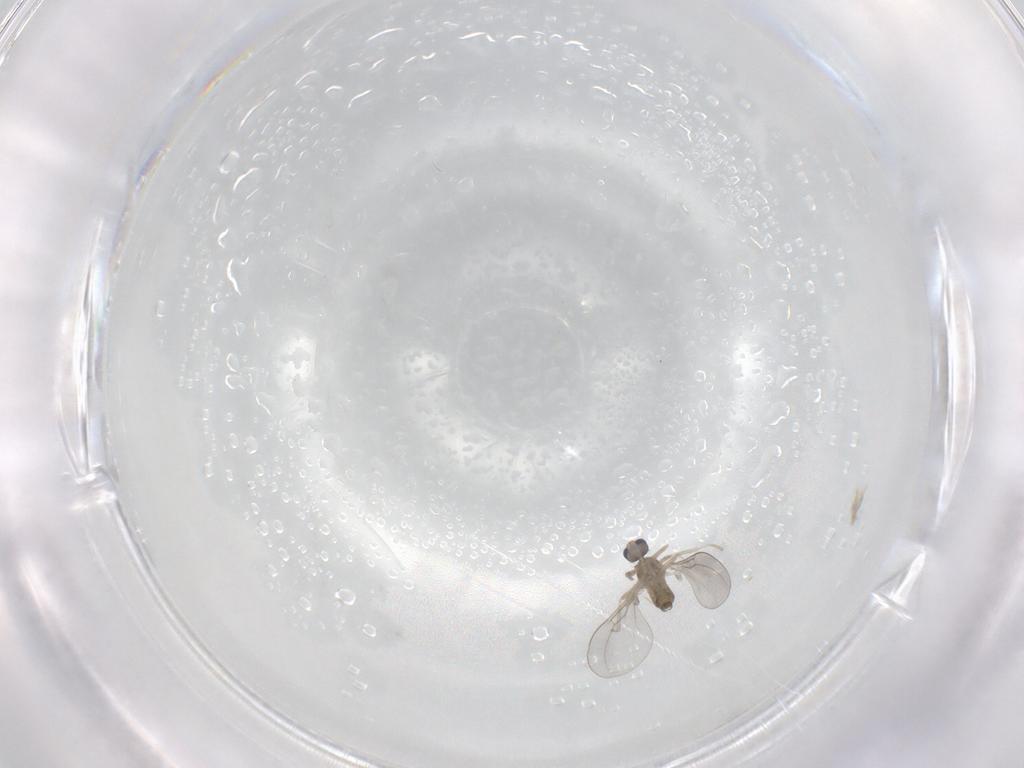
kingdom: Animalia
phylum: Arthropoda
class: Insecta
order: Diptera
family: Cecidomyiidae
